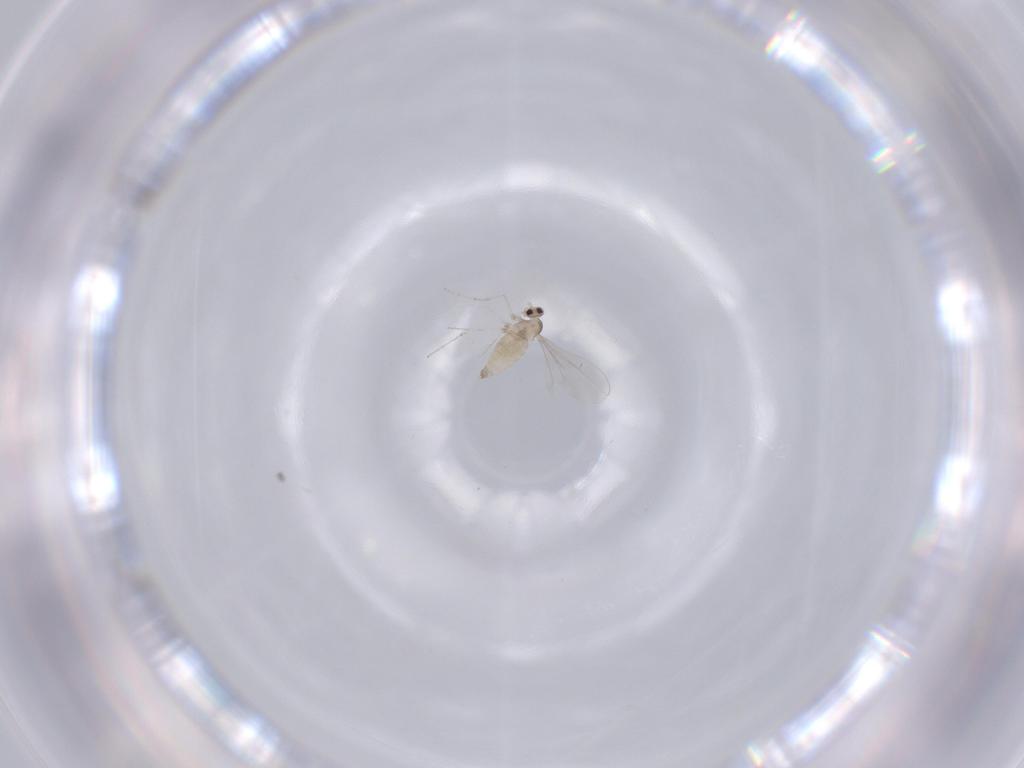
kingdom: Animalia
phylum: Arthropoda
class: Insecta
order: Diptera
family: Cecidomyiidae
